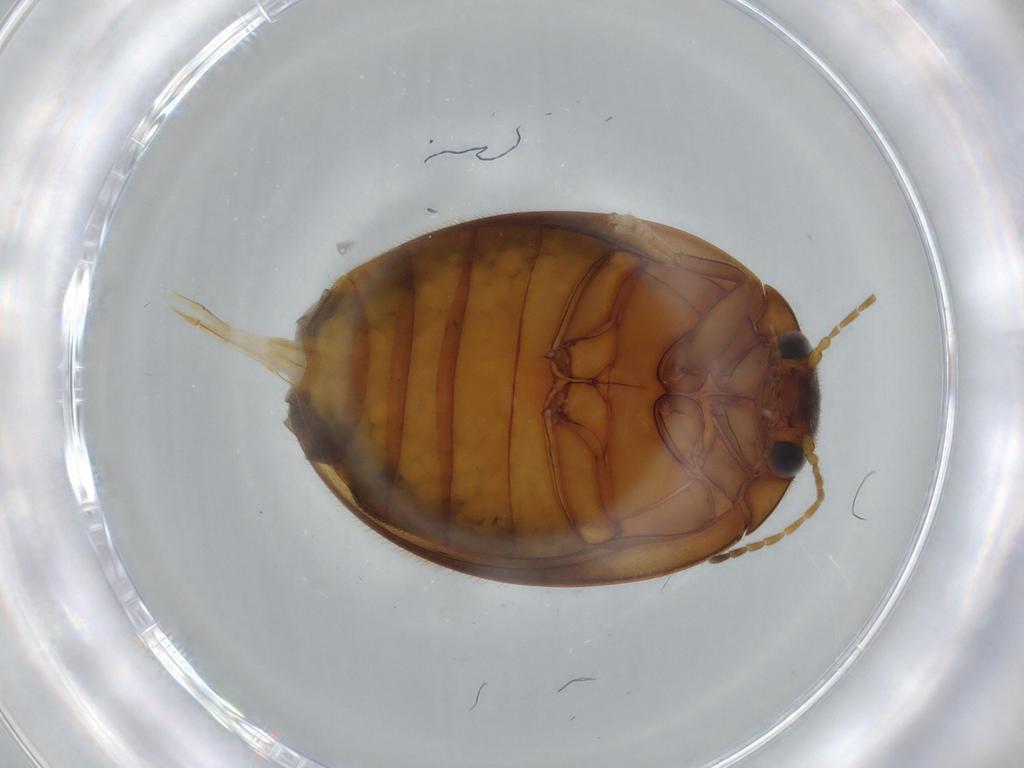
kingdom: Animalia
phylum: Arthropoda
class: Insecta
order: Coleoptera
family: Scirtidae
